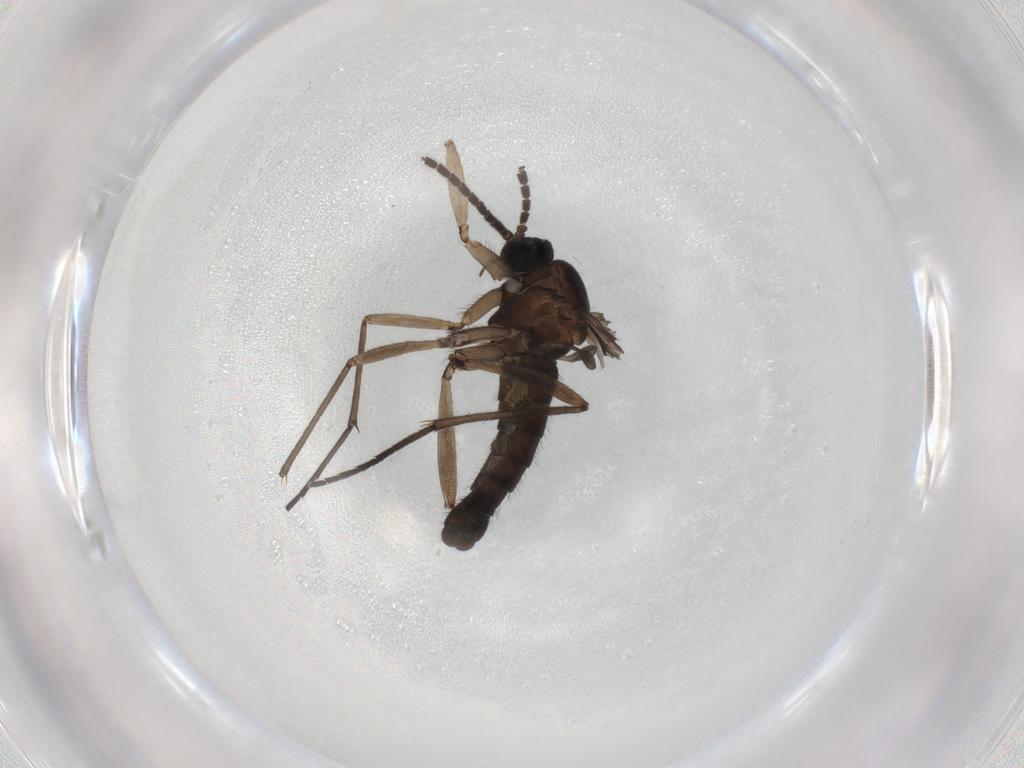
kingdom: Animalia
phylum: Arthropoda
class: Insecta
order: Diptera
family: Sciaridae
